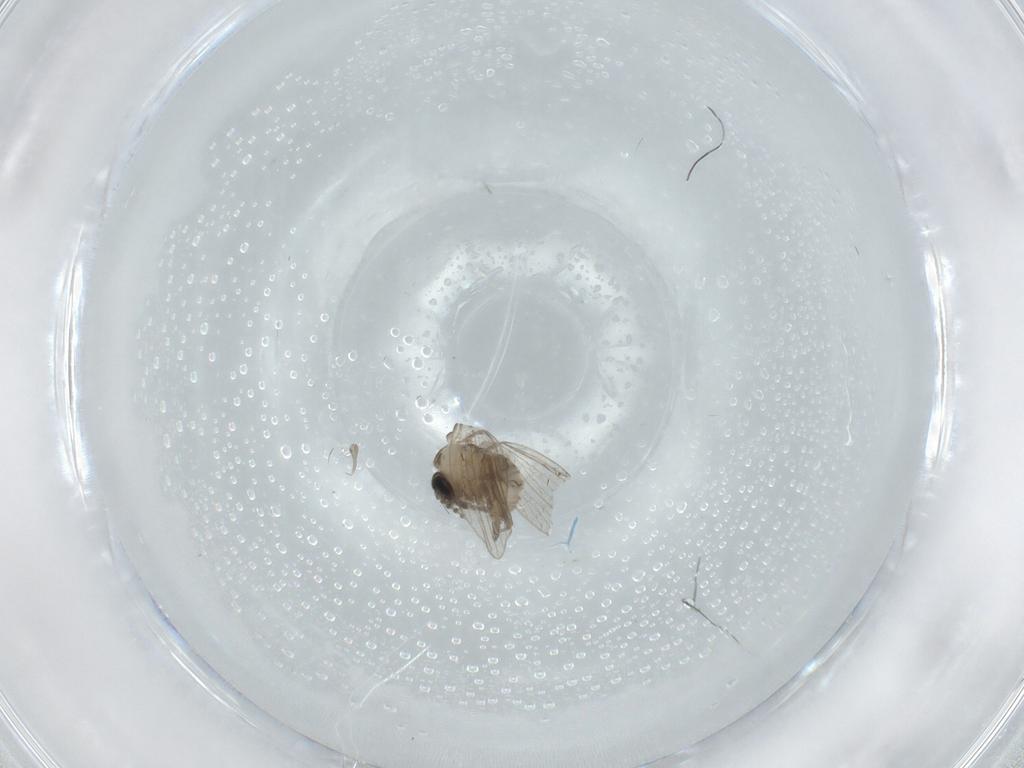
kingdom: Animalia
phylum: Arthropoda
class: Insecta
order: Diptera
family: Psychodidae
